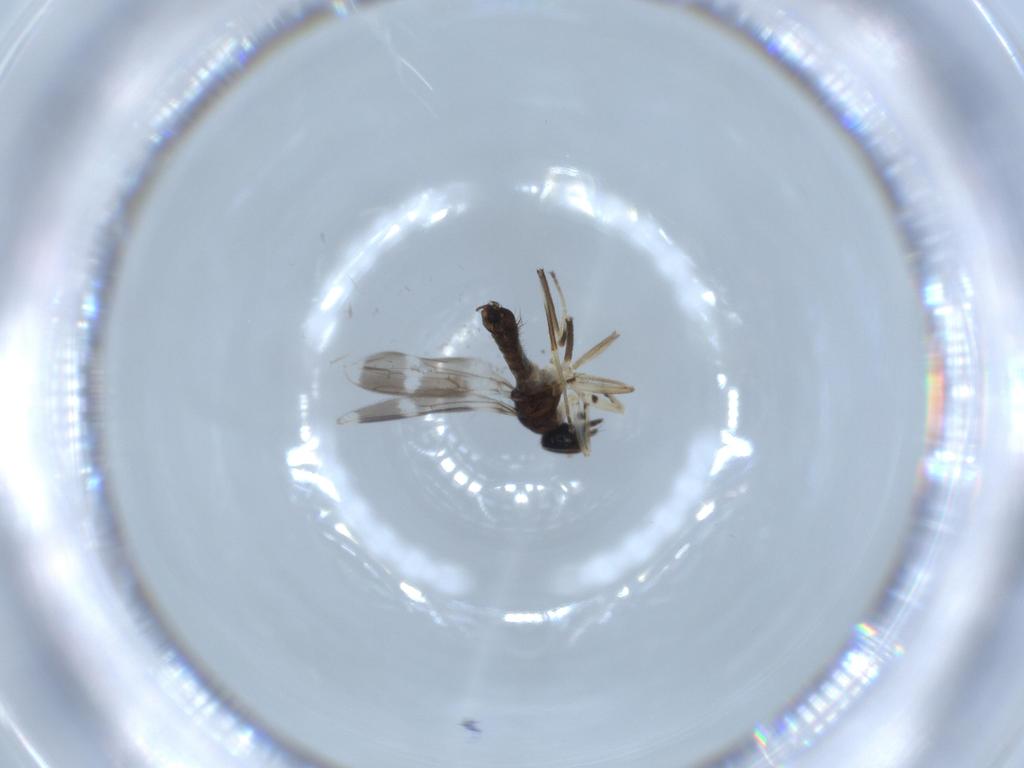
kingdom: Animalia
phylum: Arthropoda
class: Insecta
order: Diptera
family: Hybotidae
